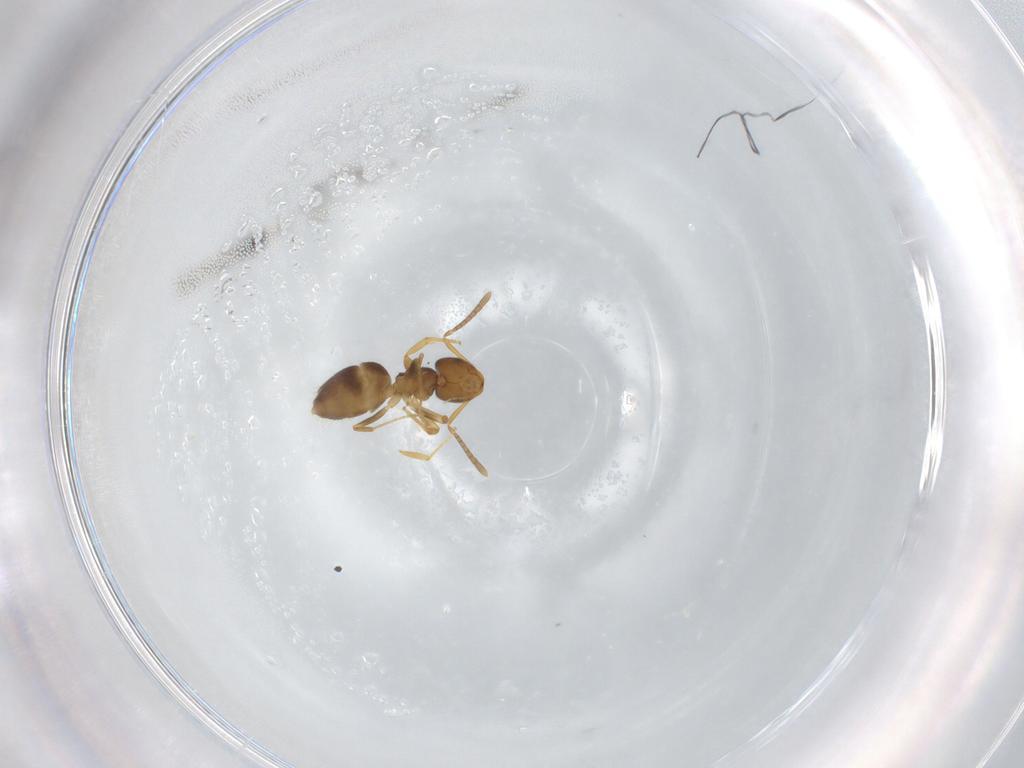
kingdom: Animalia
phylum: Arthropoda
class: Insecta
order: Hymenoptera
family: Formicidae
